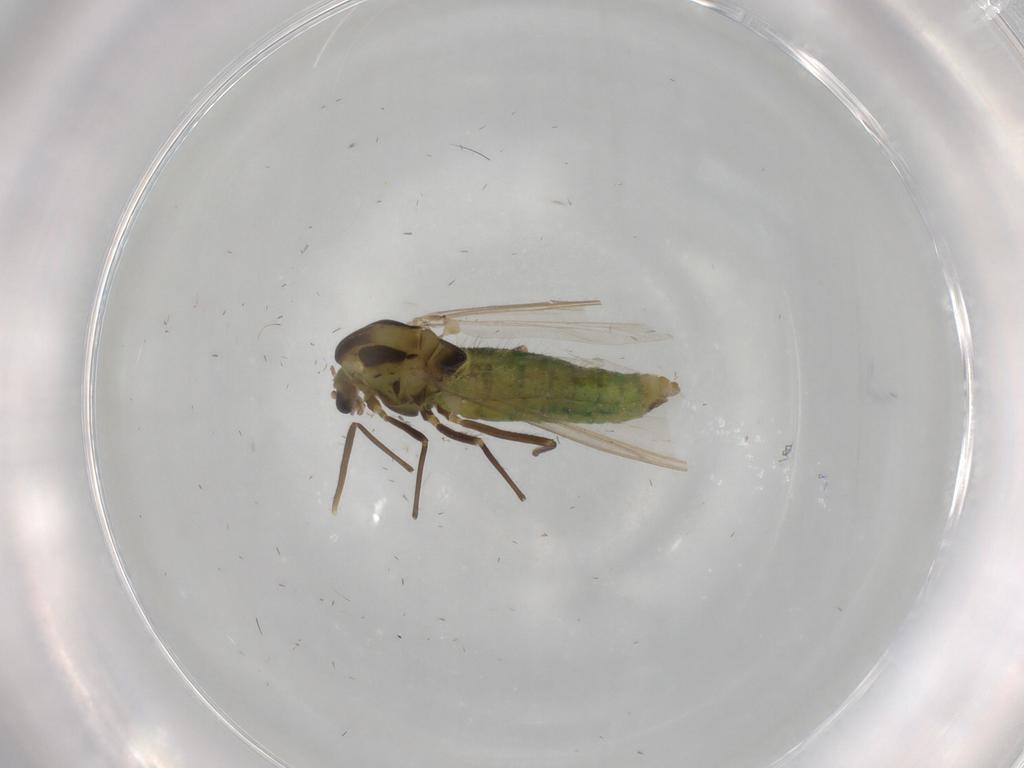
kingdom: Animalia
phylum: Arthropoda
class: Insecta
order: Diptera
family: Chironomidae
